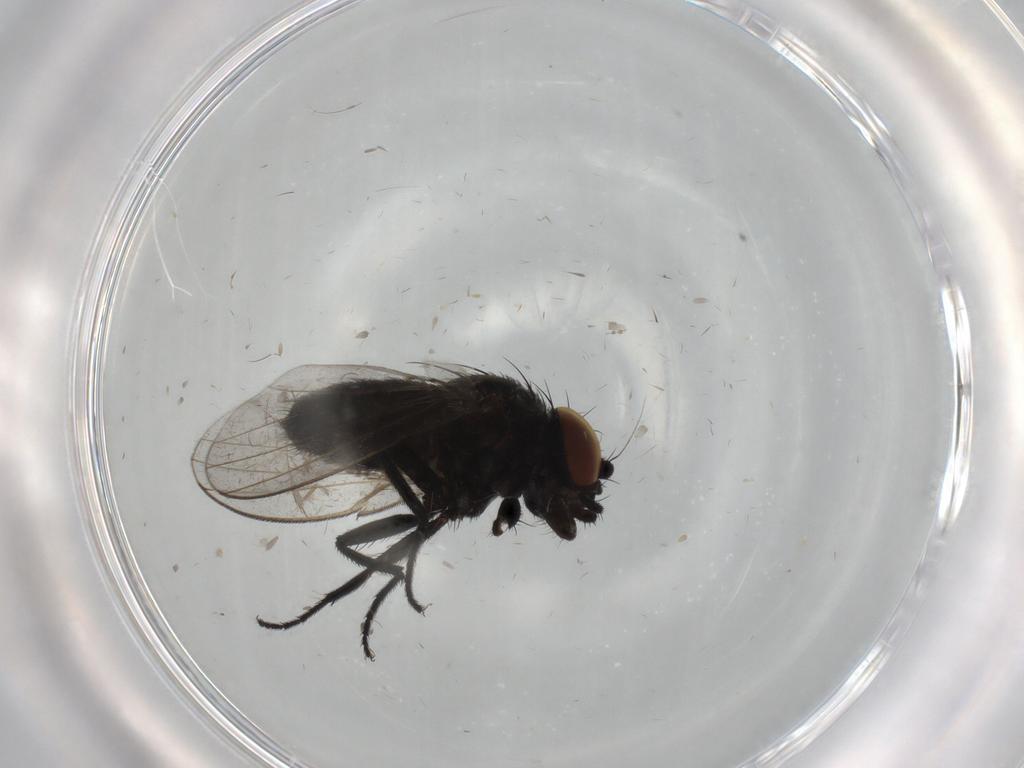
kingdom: Animalia
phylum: Arthropoda
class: Insecta
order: Diptera
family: Milichiidae
